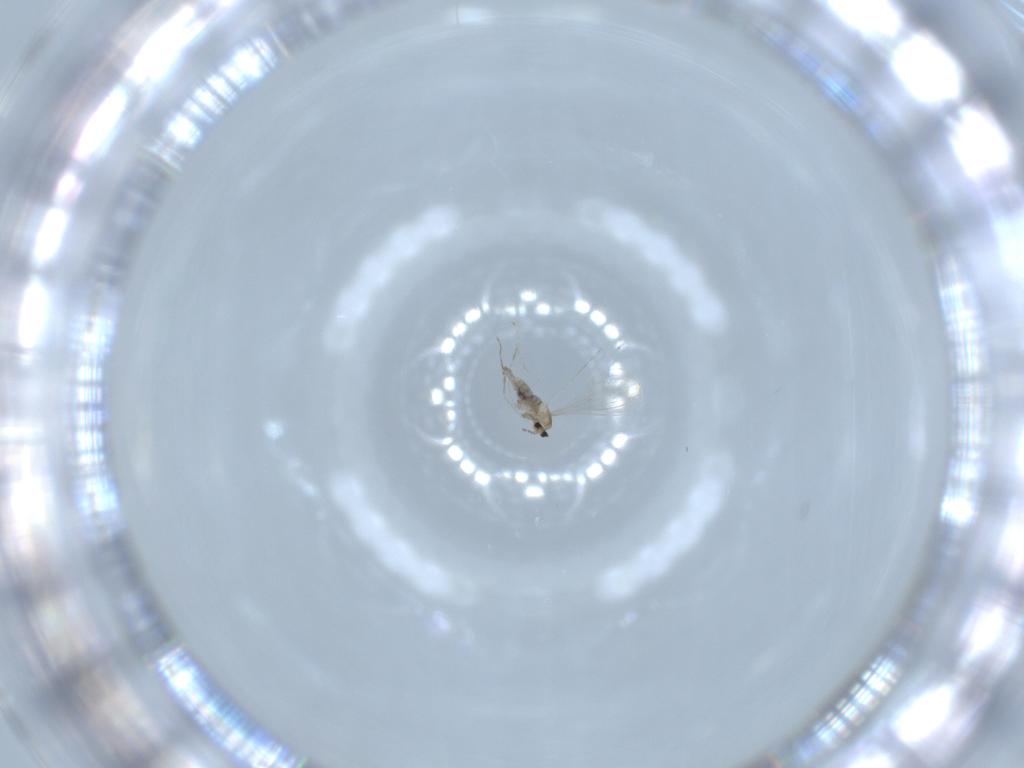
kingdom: Animalia
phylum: Arthropoda
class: Insecta
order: Diptera
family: Cecidomyiidae
